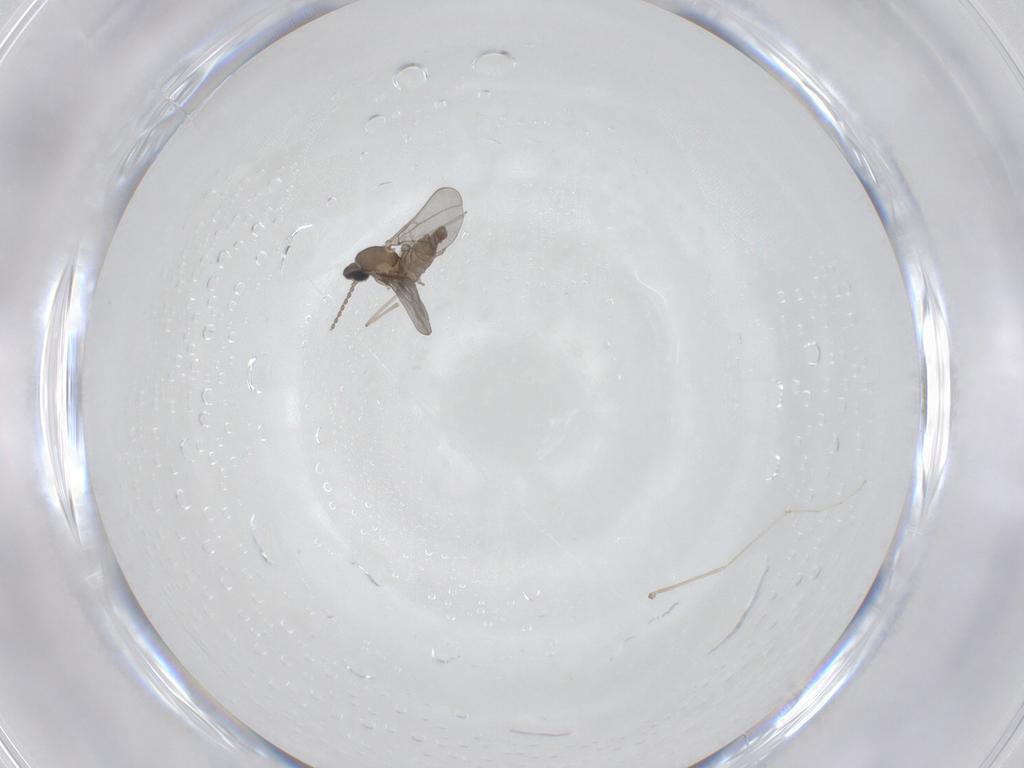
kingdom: Animalia
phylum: Arthropoda
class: Insecta
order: Diptera
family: Cecidomyiidae
